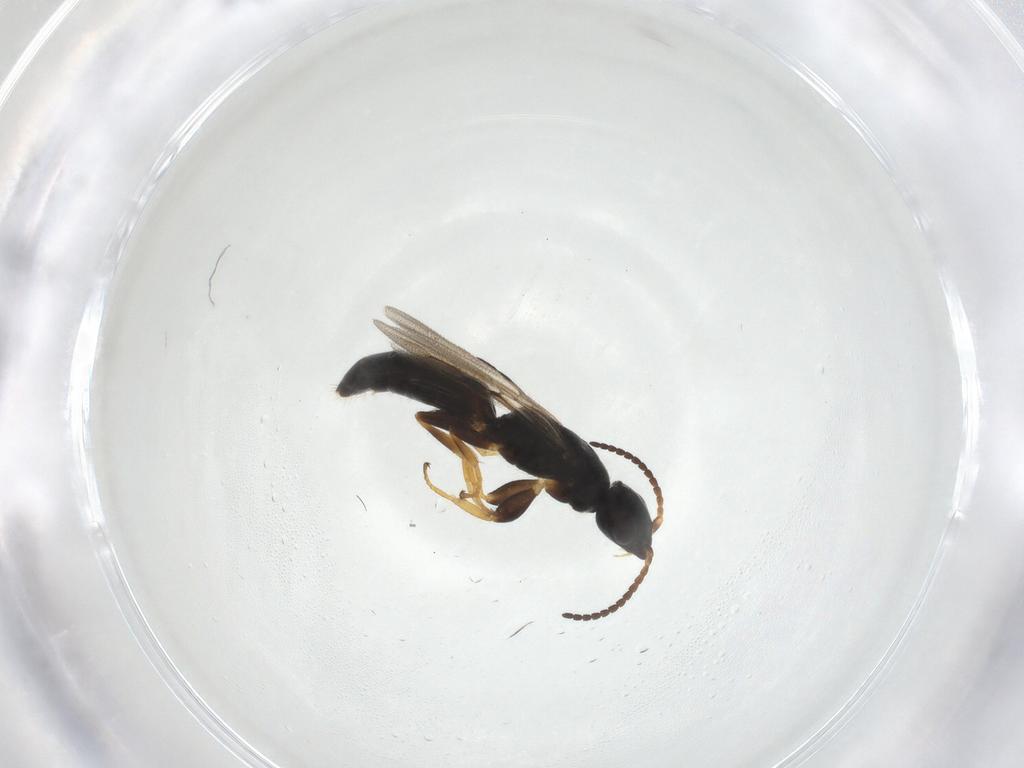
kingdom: Animalia
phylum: Arthropoda
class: Insecta
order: Hymenoptera
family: Bethylidae
